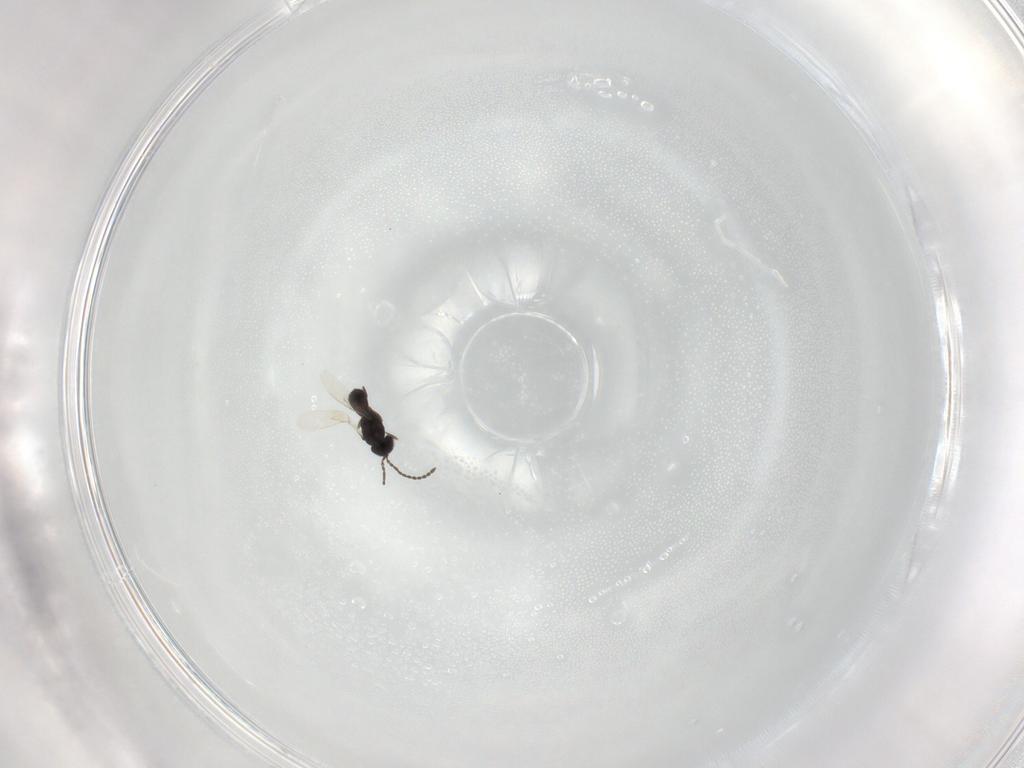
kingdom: Animalia
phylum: Arthropoda
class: Insecta
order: Hymenoptera
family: Scelionidae
